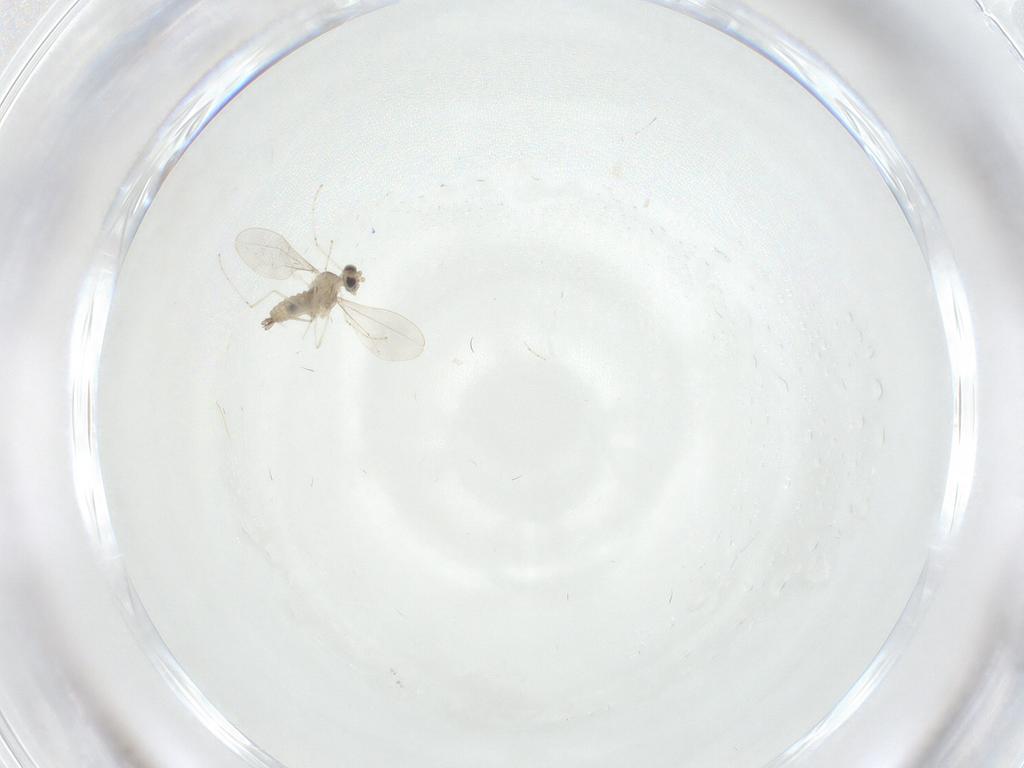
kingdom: Animalia
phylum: Arthropoda
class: Insecta
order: Diptera
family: Cecidomyiidae
